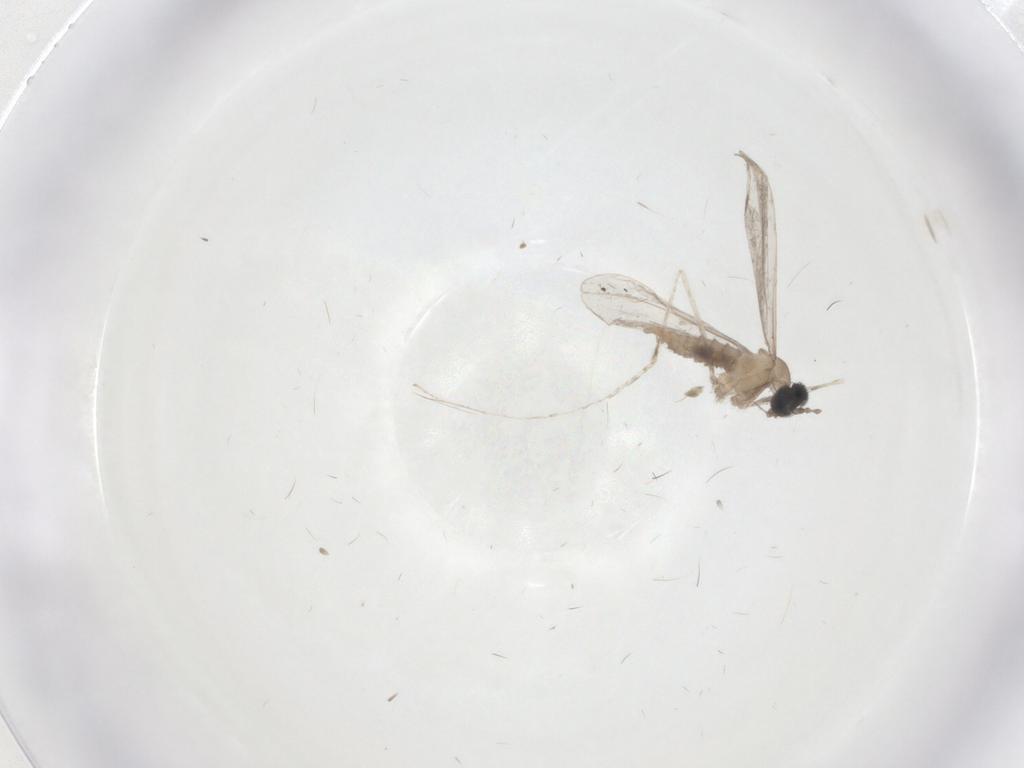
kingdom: Animalia
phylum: Arthropoda
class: Insecta
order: Diptera
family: Cecidomyiidae
